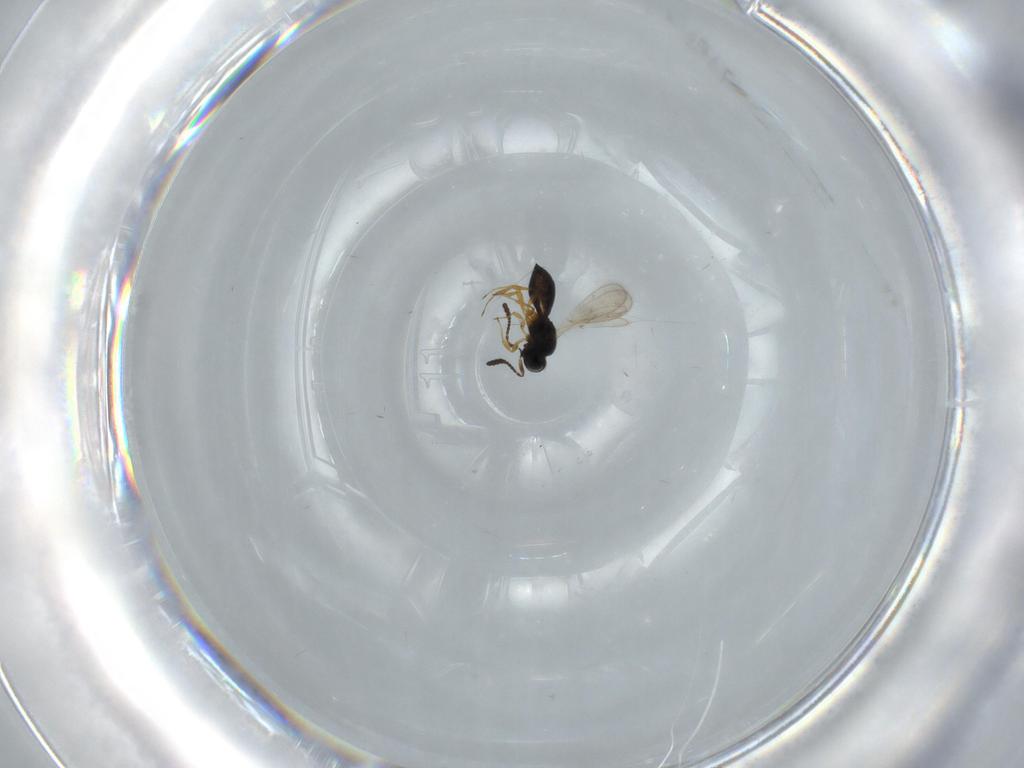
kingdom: Animalia
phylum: Arthropoda
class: Insecta
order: Hymenoptera
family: Scelionidae
